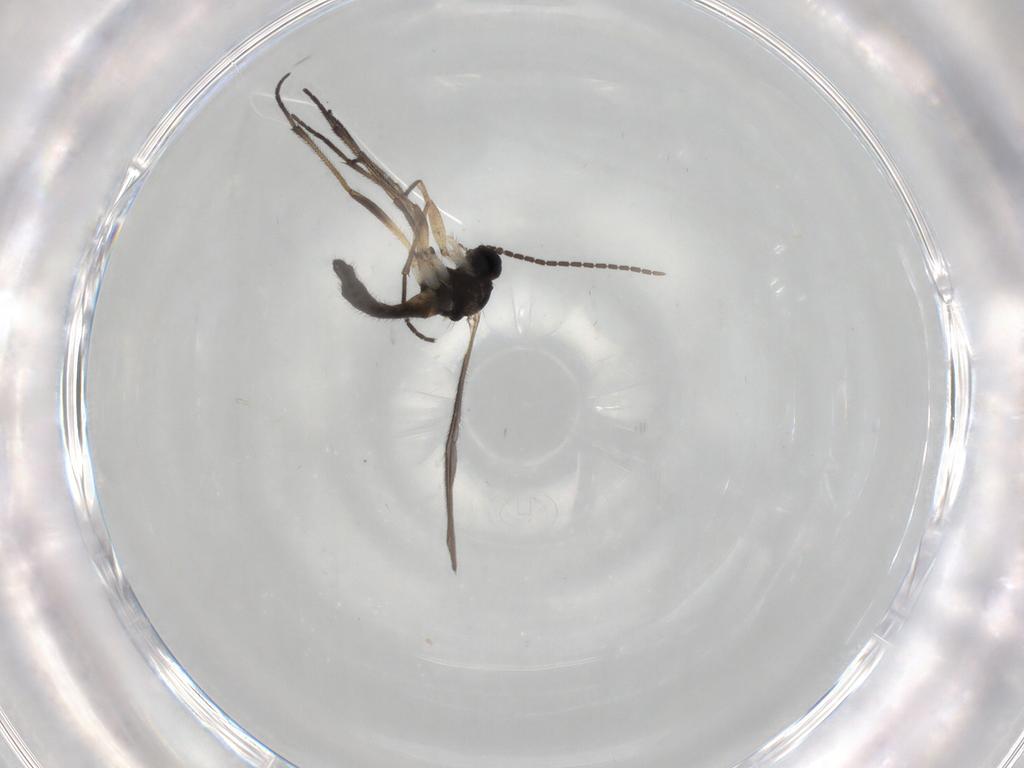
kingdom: Animalia
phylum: Arthropoda
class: Insecta
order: Diptera
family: Sciaridae
